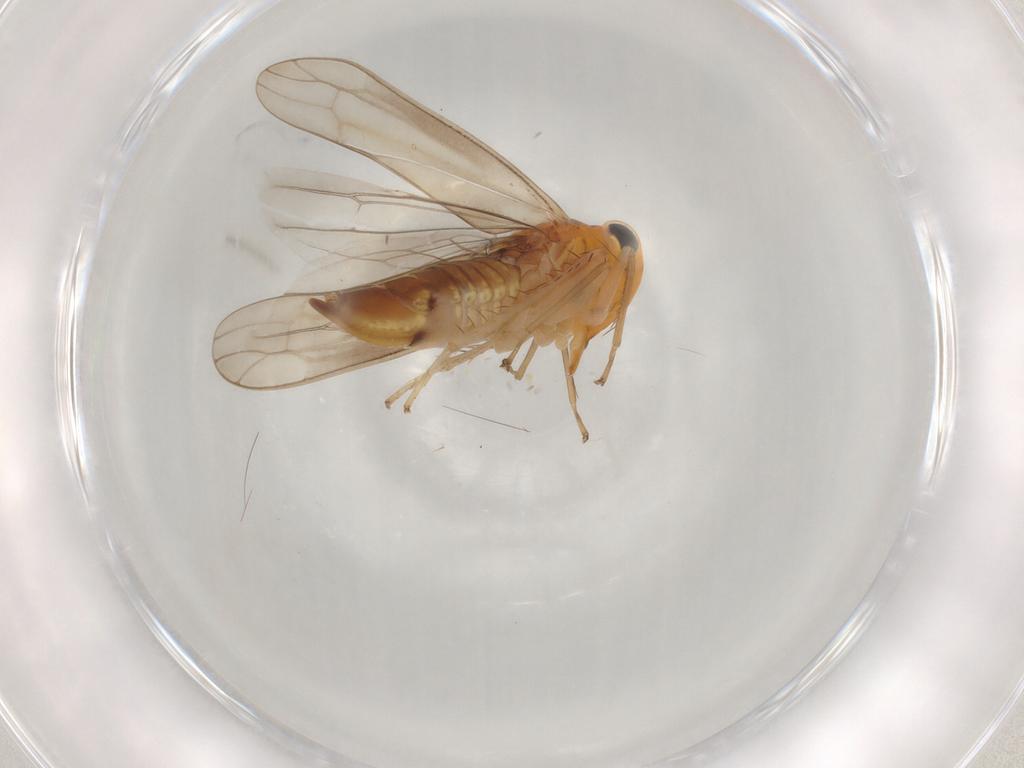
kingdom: Animalia
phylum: Arthropoda
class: Insecta
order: Hemiptera
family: Cicadellidae
